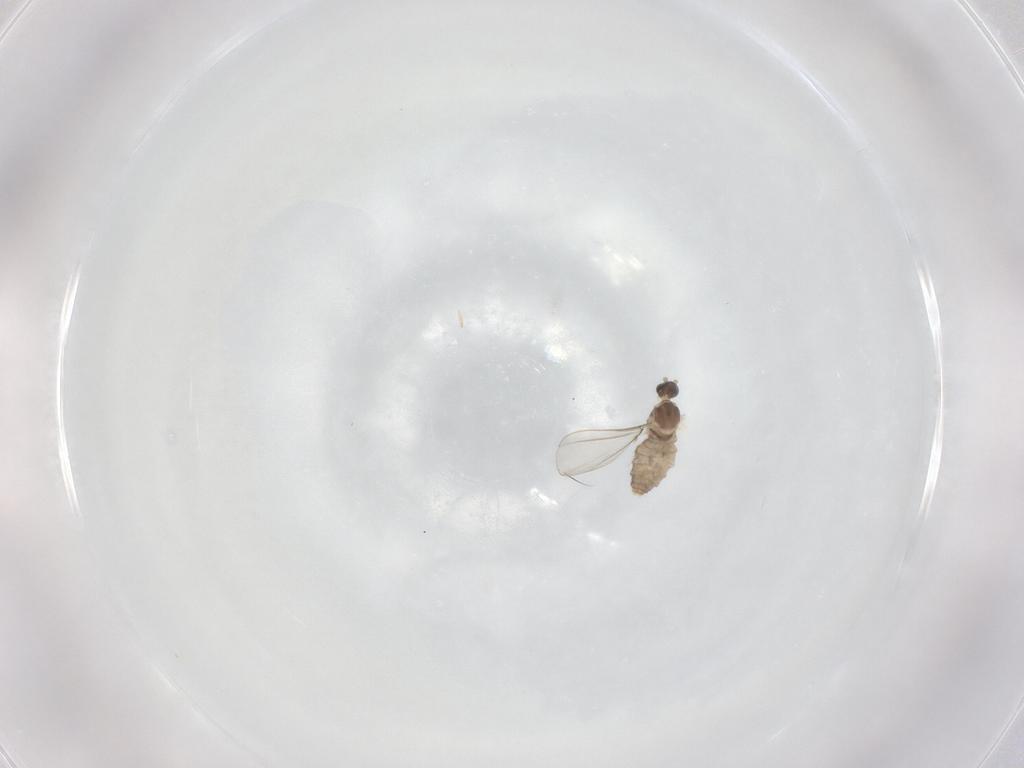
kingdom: Animalia
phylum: Arthropoda
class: Insecta
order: Diptera
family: Cecidomyiidae
